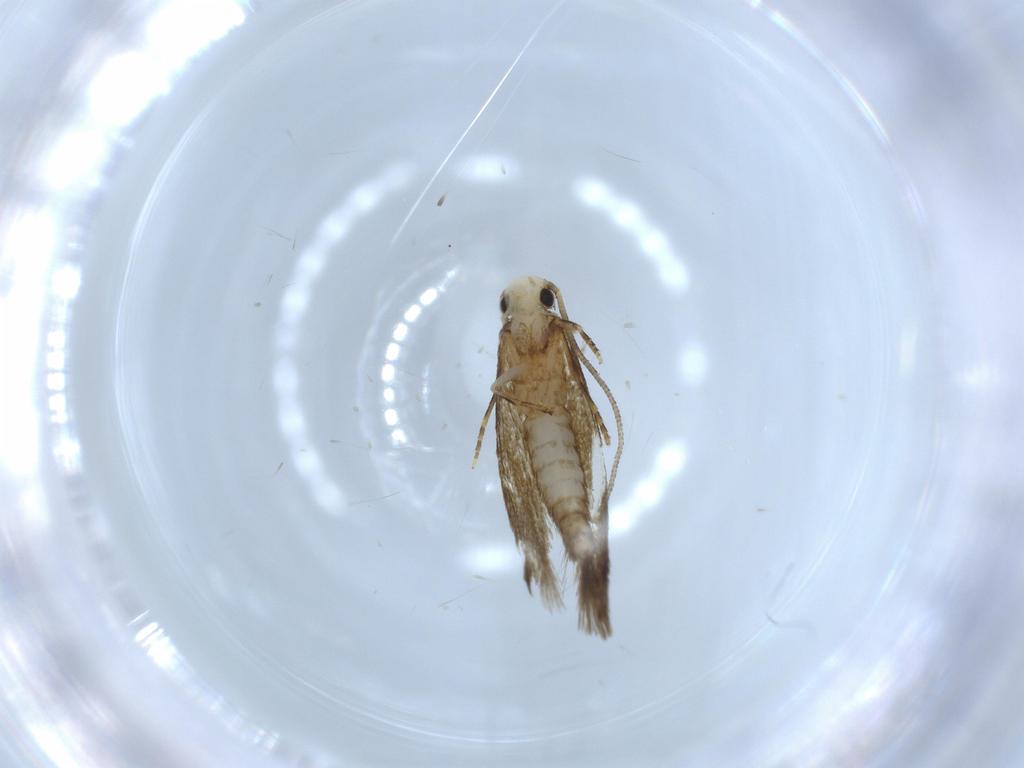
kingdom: Animalia
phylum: Arthropoda
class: Insecta
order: Lepidoptera
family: Tineidae
